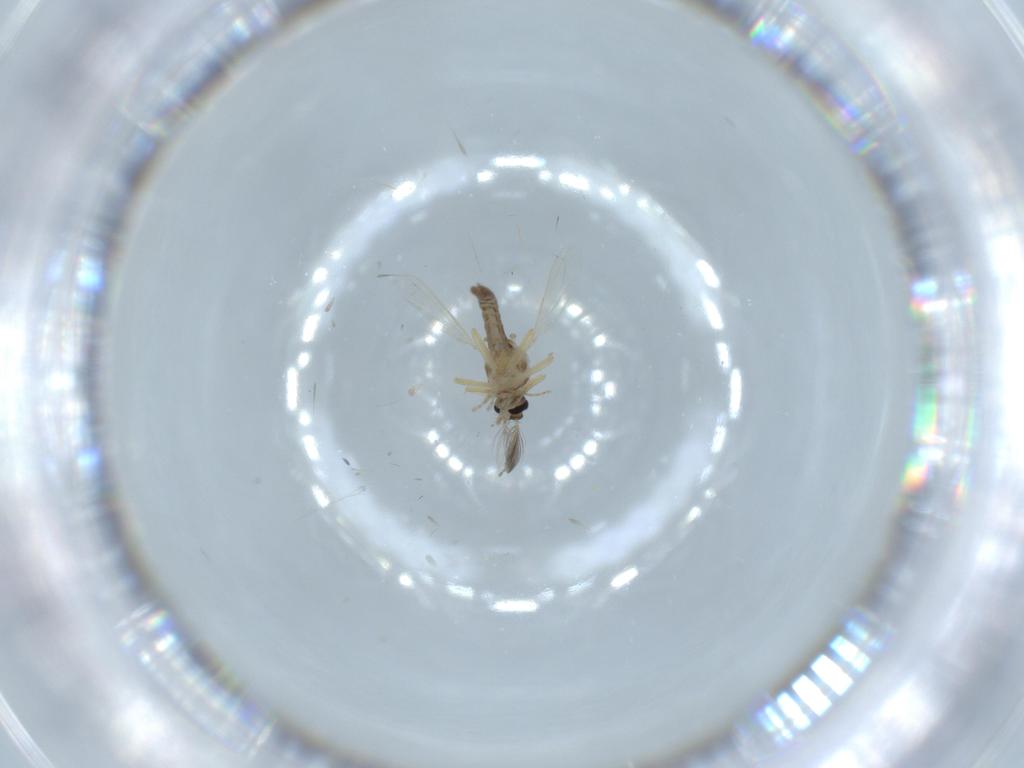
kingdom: Animalia
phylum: Arthropoda
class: Insecta
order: Diptera
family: Ceratopogonidae
